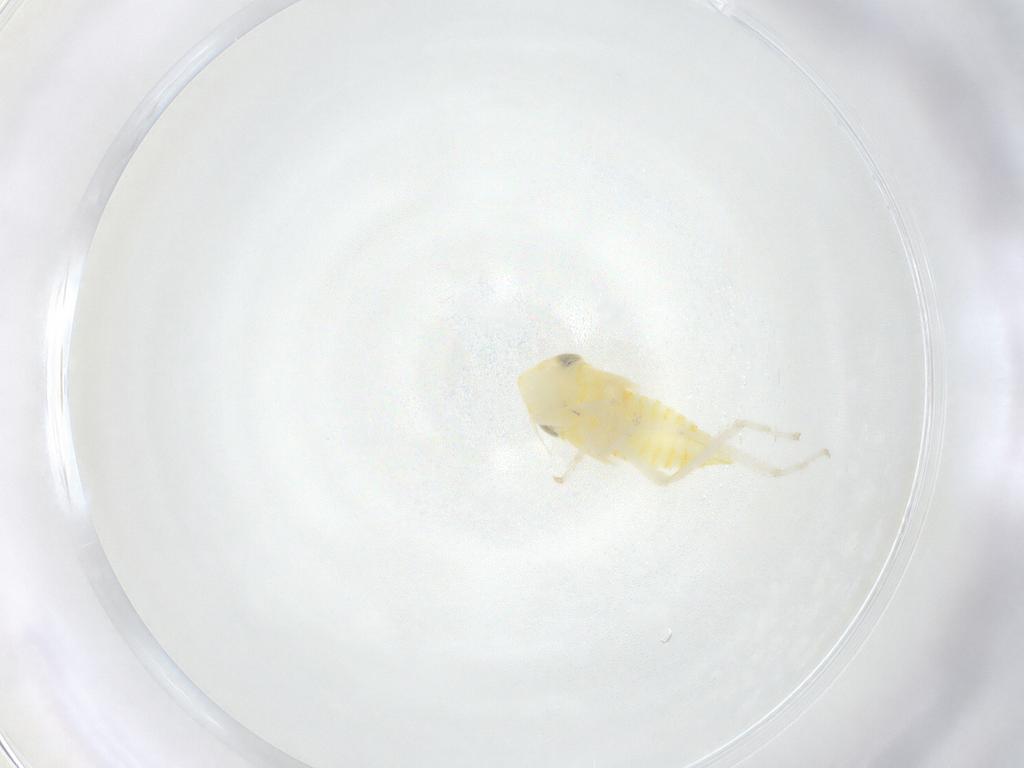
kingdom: Animalia
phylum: Arthropoda
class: Insecta
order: Hemiptera
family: Cicadellidae
